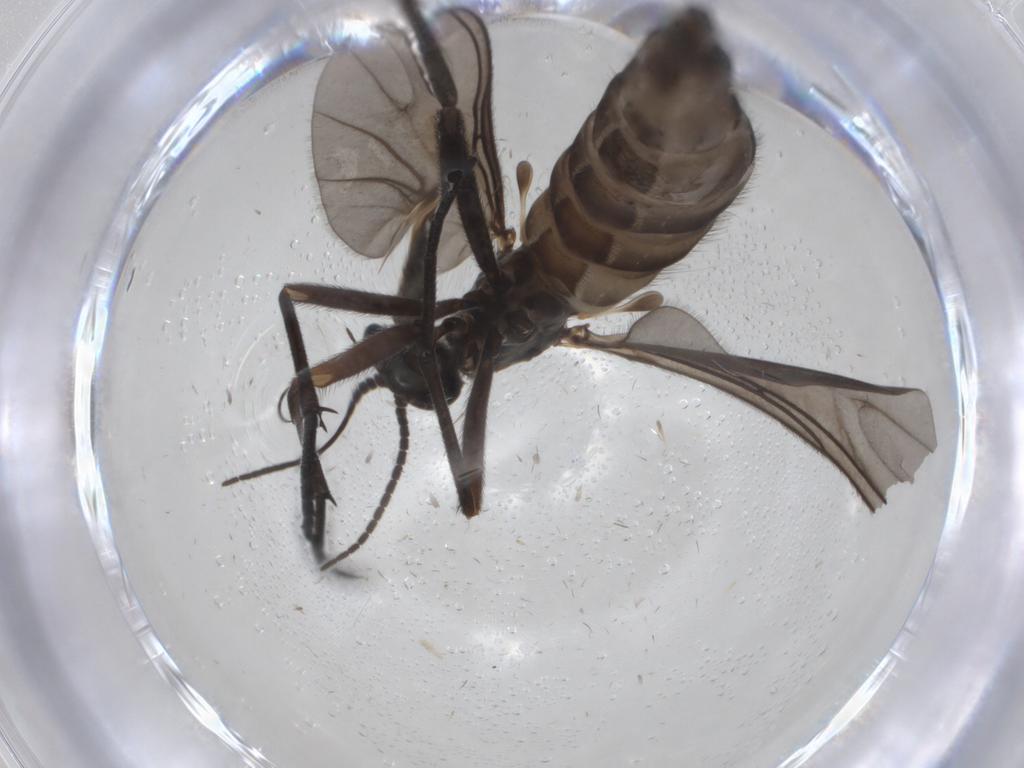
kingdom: Animalia
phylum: Arthropoda
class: Insecta
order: Diptera
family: Sciaridae
